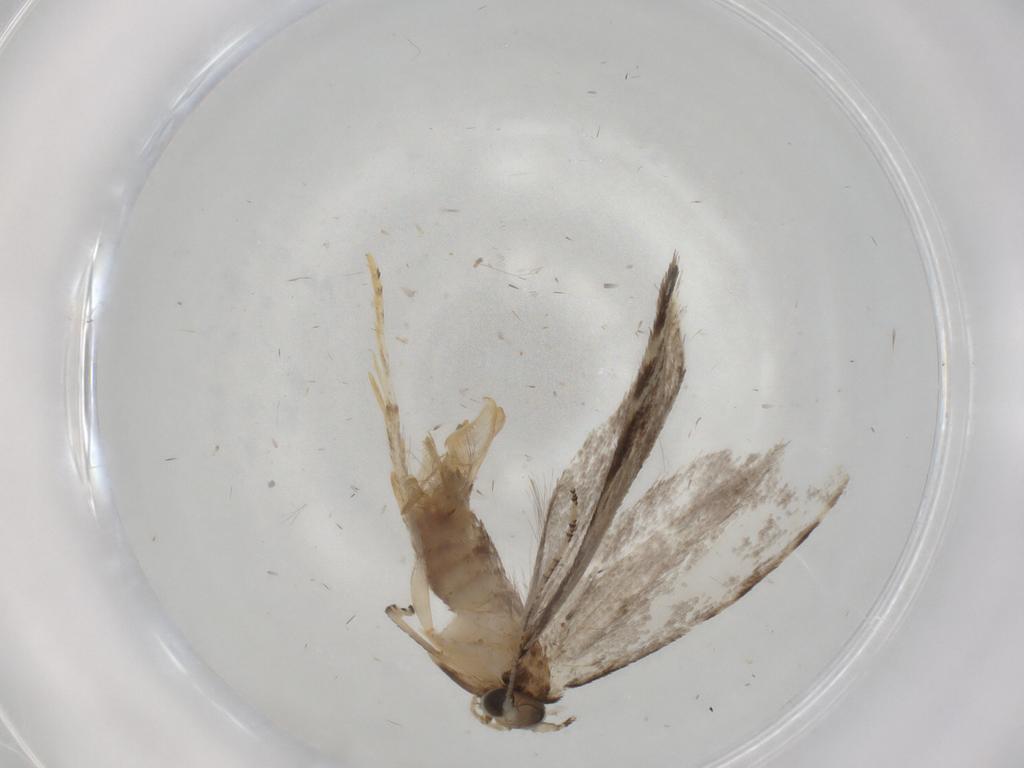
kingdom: Animalia
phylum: Arthropoda
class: Insecta
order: Lepidoptera
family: Tineidae
